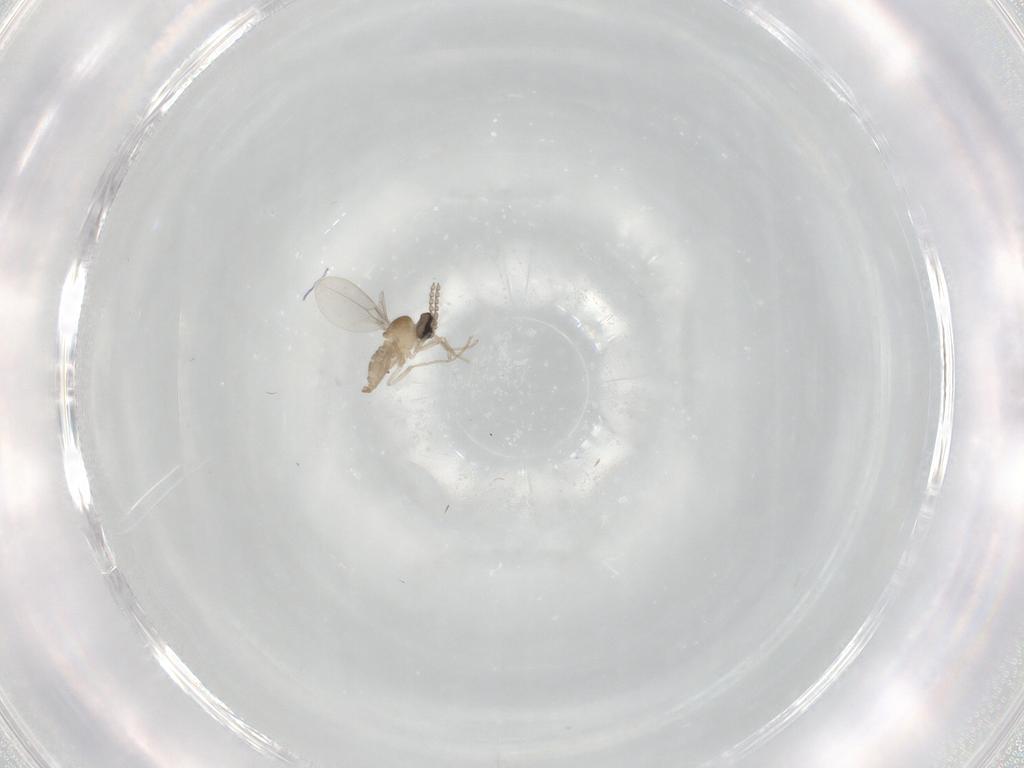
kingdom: Animalia
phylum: Arthropoda
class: Insecta
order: Diptera
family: Cecidomyiidae
